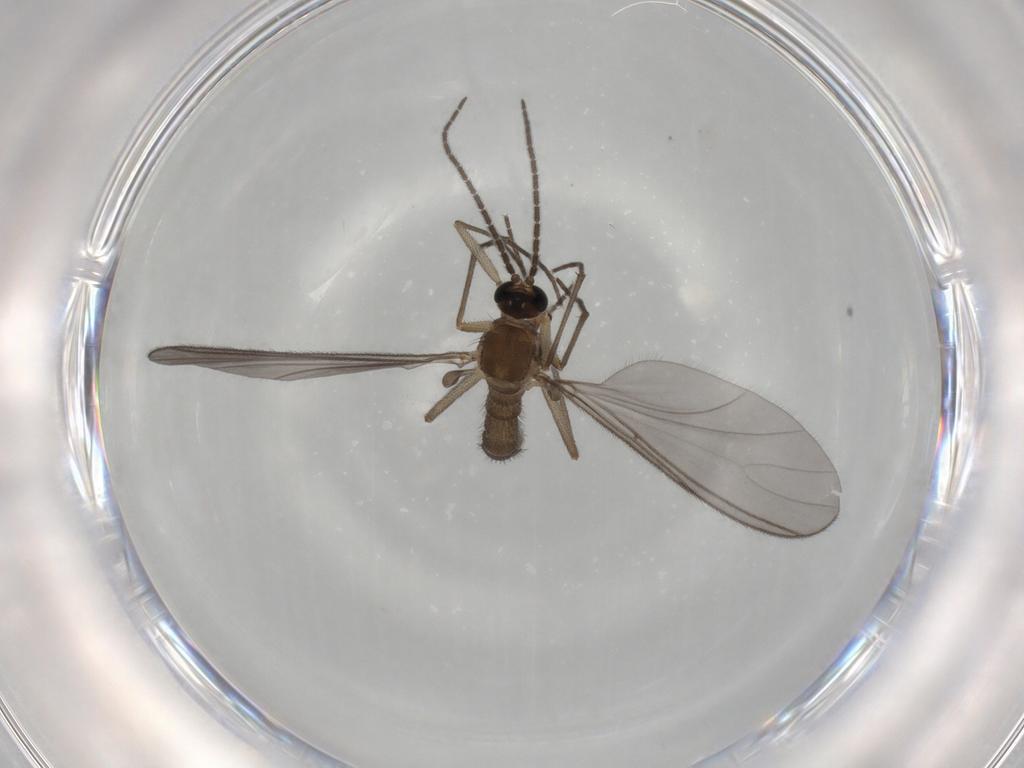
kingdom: Animalia
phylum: Arthropoda
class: Insecta
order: Diptera
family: Sciaridae
